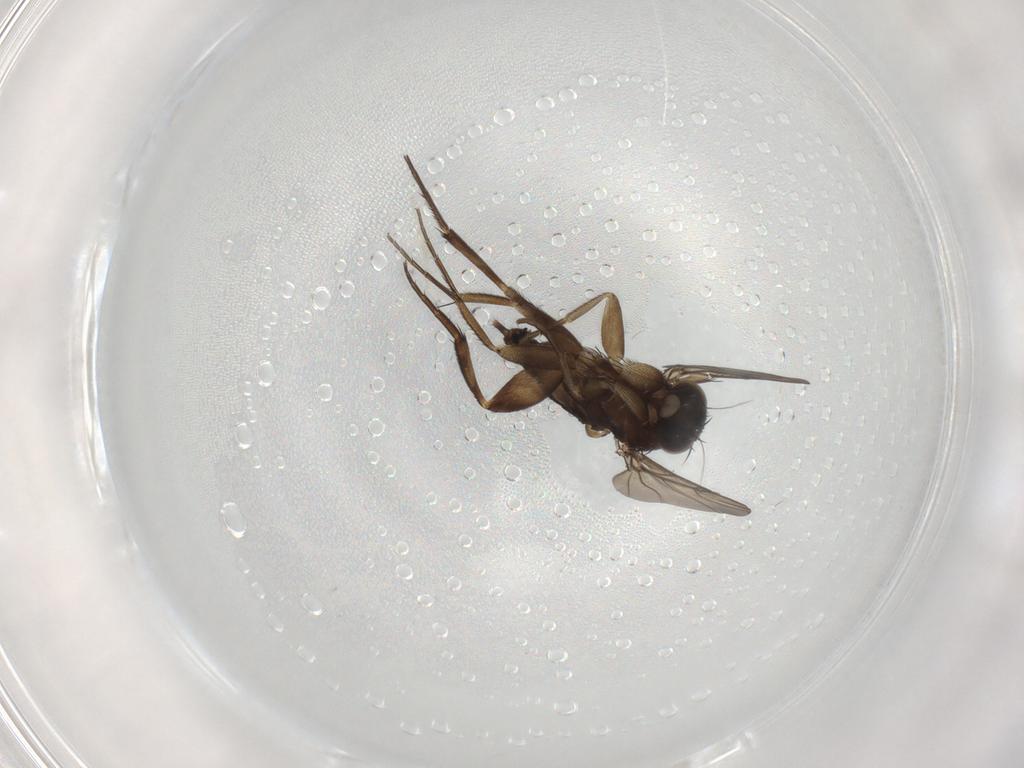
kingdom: Animalia
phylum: Arthropoda
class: Insecta
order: Diptera
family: Phoridae
